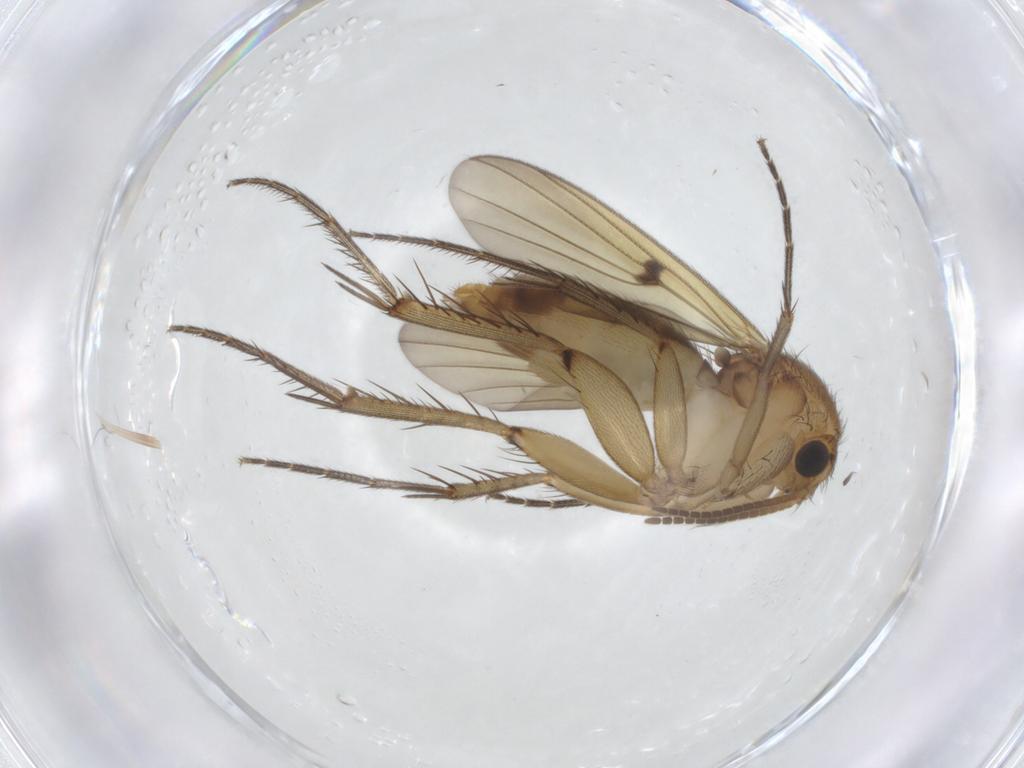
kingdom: Animalia
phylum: Arthropoda
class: Insecta
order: Diptera
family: Mycetophilidae
